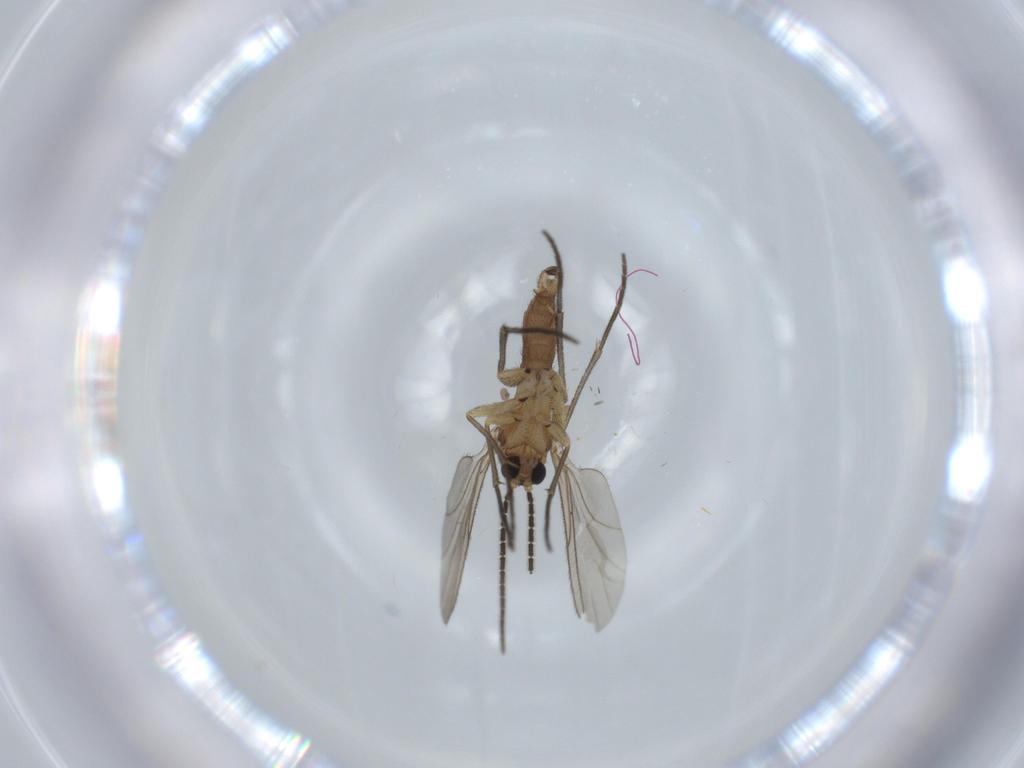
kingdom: Animalia
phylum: Arthropoda
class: Insecta
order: Diptera
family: Sciaridae
